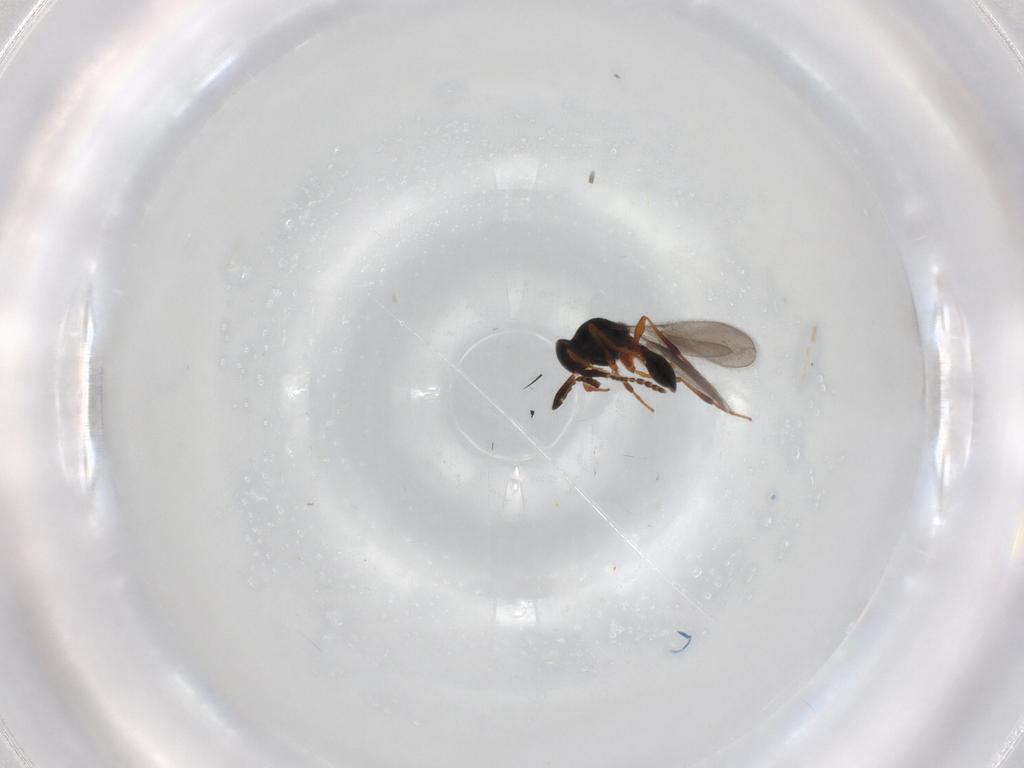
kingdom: Animalia
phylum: Arthropoda
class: Insecta
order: Hymenoptera
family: Platygastridae
